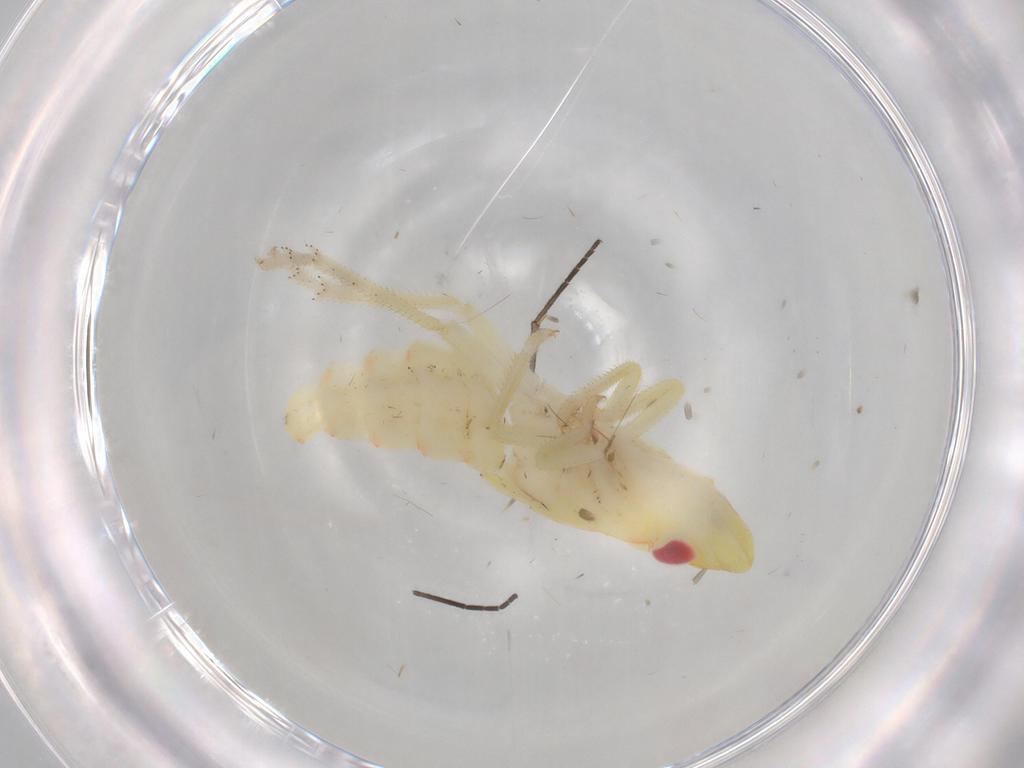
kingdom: Animalia
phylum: Arthropoda
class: Insecta
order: Hemiptera
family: Tropiduchidae
